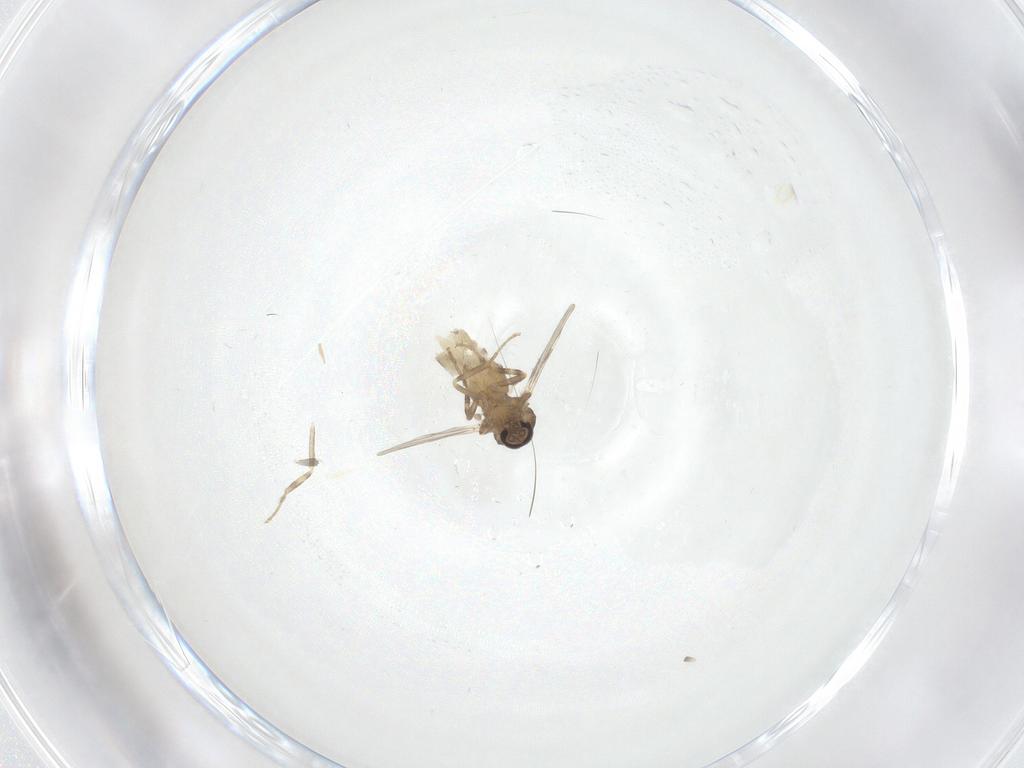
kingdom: Animalia
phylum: Arthropoda
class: Insecta
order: Diptera
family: Ceratopogonidae
